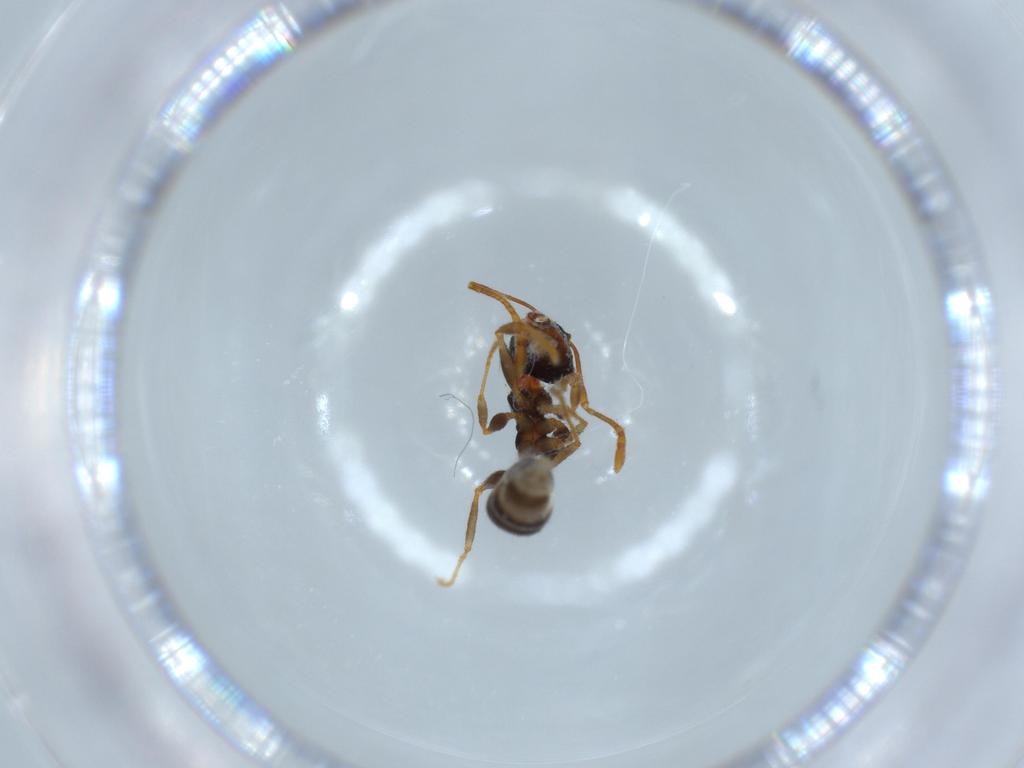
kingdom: Animalia
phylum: Arthropoda
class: Insecta
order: Hymenoptera
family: Formicidae
